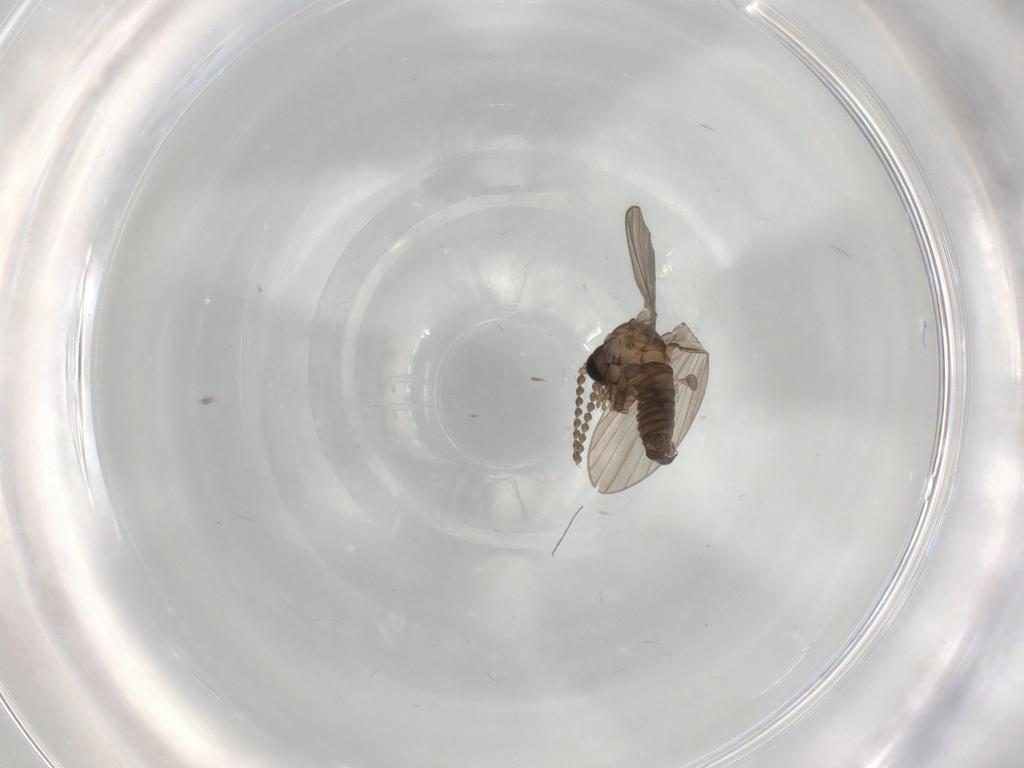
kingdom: Animalia
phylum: Arthropoda
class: Insecta
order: Diptera
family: Psychodidae
